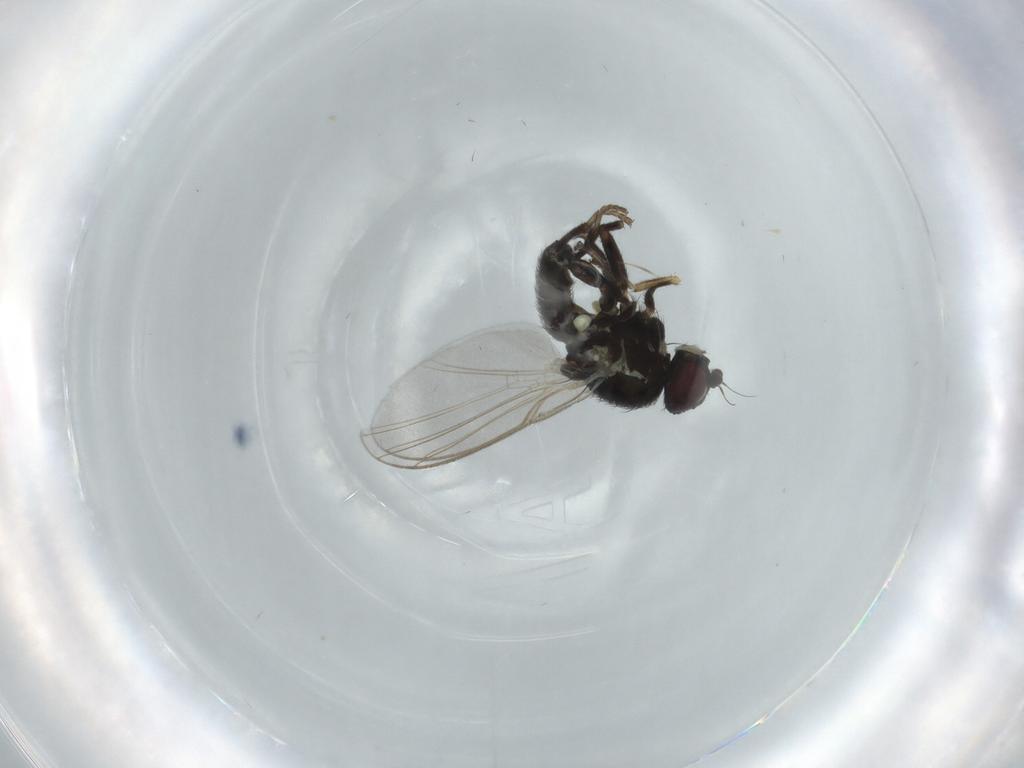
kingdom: Animalia
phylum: Arthropoda
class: Insecta
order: Diptera
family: Agromyzidae
